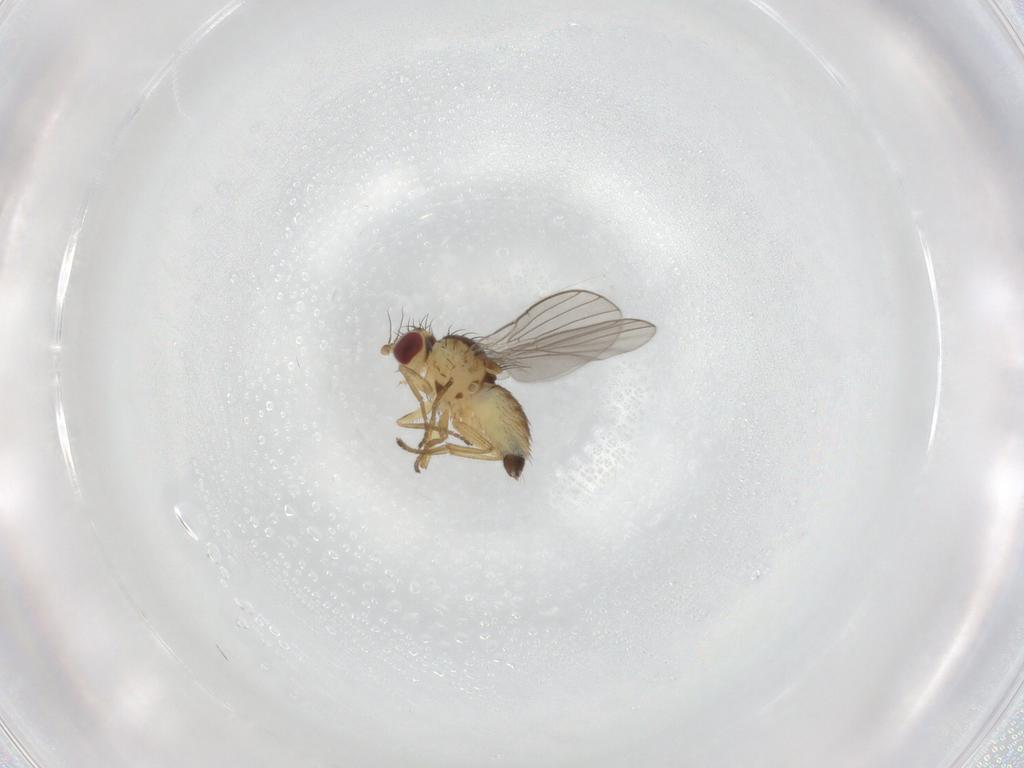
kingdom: Animalia
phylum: Arthropoda
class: Insecta
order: Diptera
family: Agromyzidae
